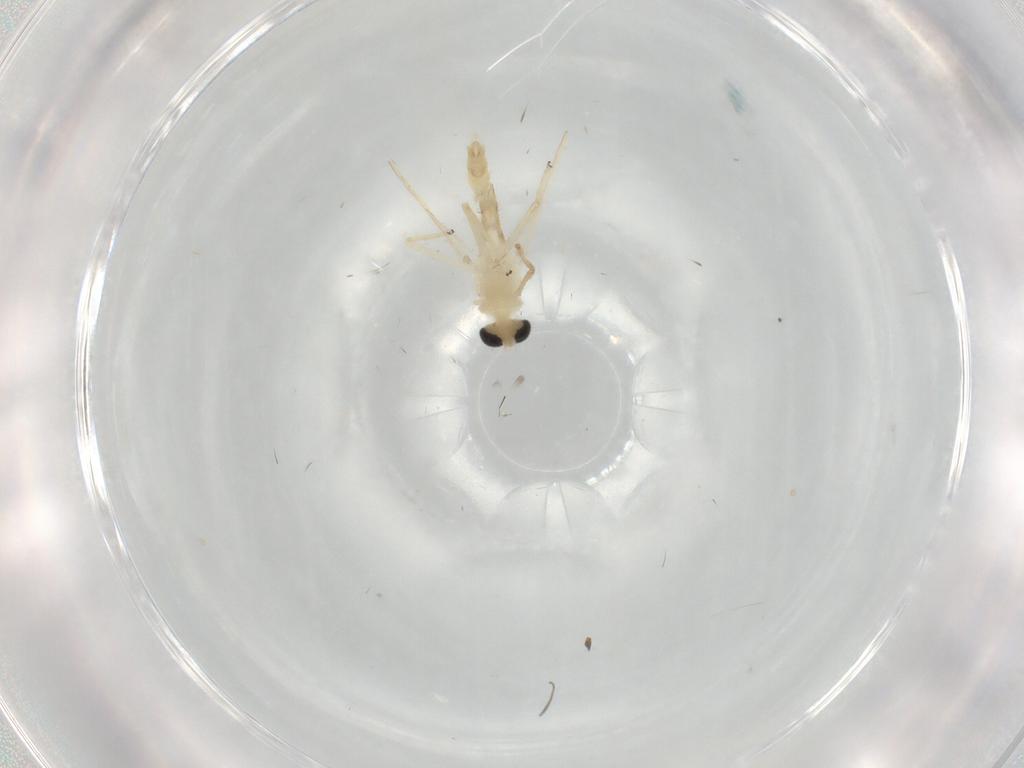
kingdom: Animalia
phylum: Arthropoda
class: Insecta
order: Diptera
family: Chironomidae
